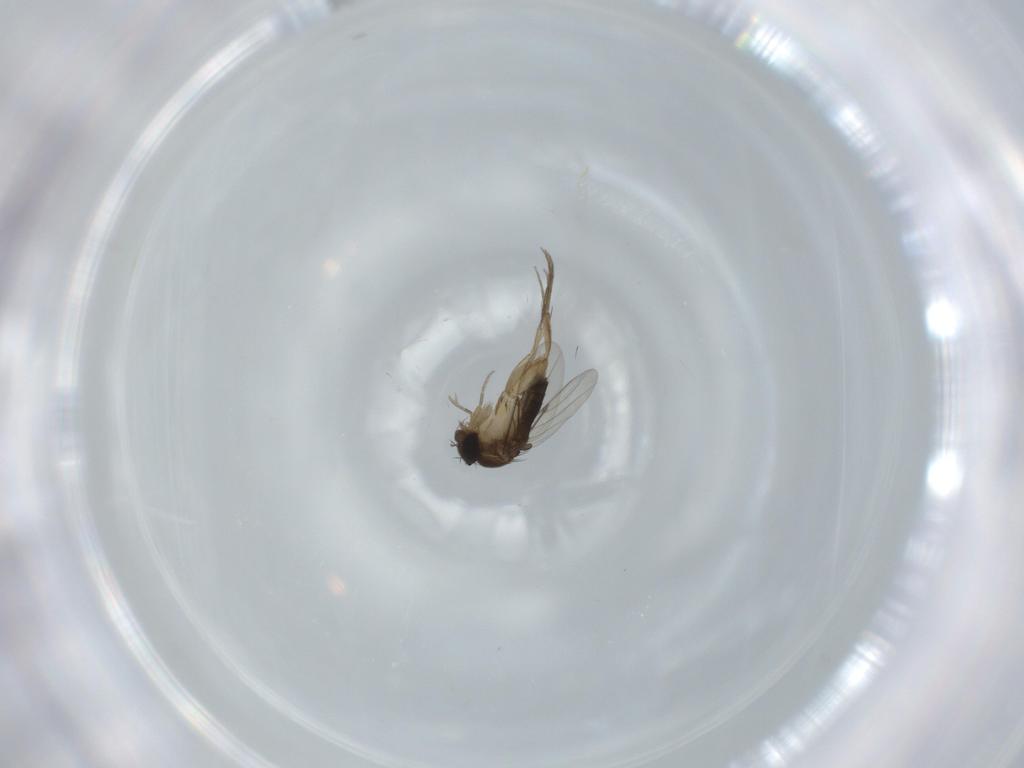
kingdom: Animalia
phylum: Arthropoda
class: Insecta
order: Diptera
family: Phoridae
